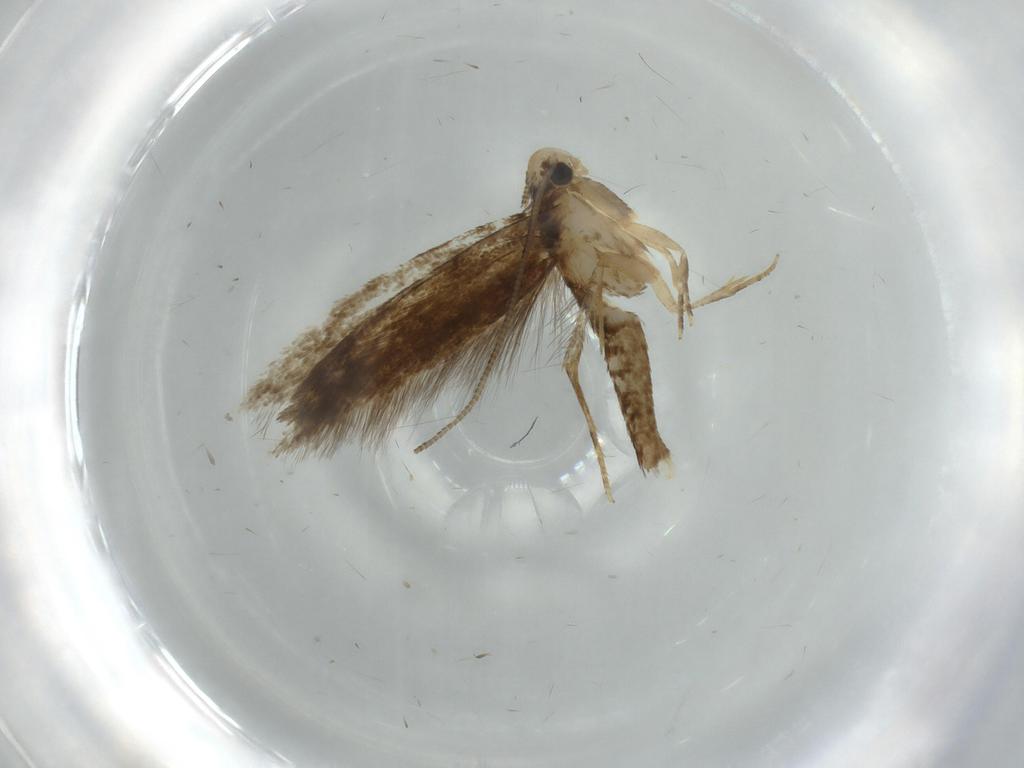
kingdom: Animalia
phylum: Arthropoda
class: Insecta
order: Lepidoptera
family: Tineidae
